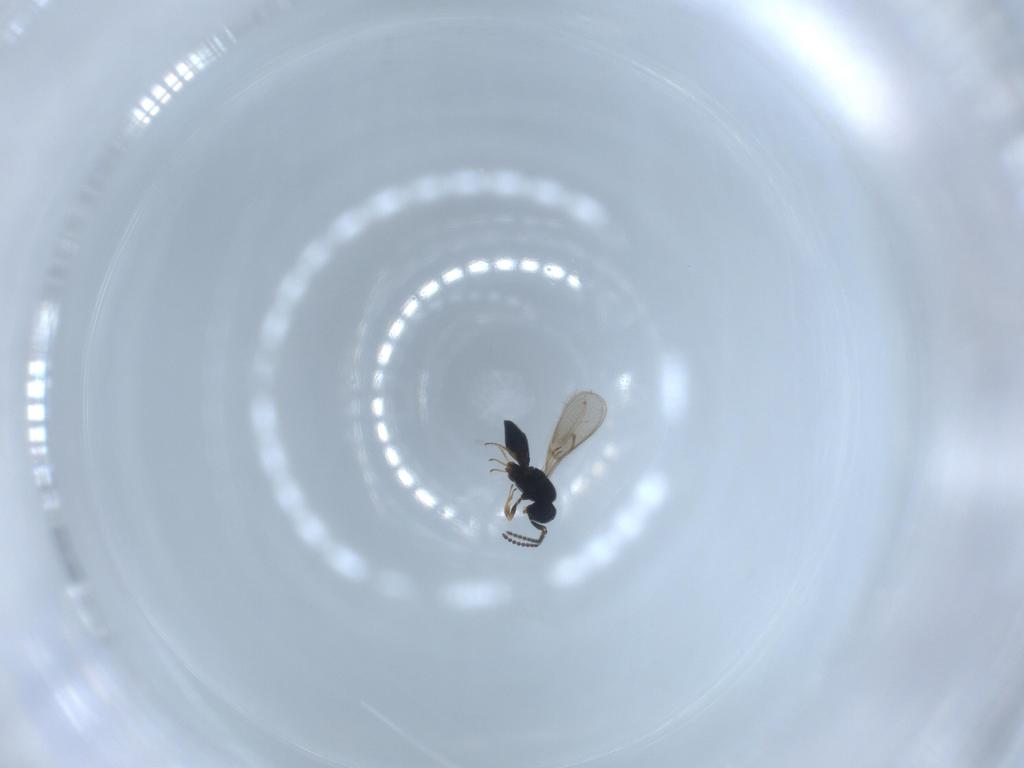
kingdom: Animalia
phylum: Arthropoda
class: Insecta
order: Hymenoptera
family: Scelionidae
